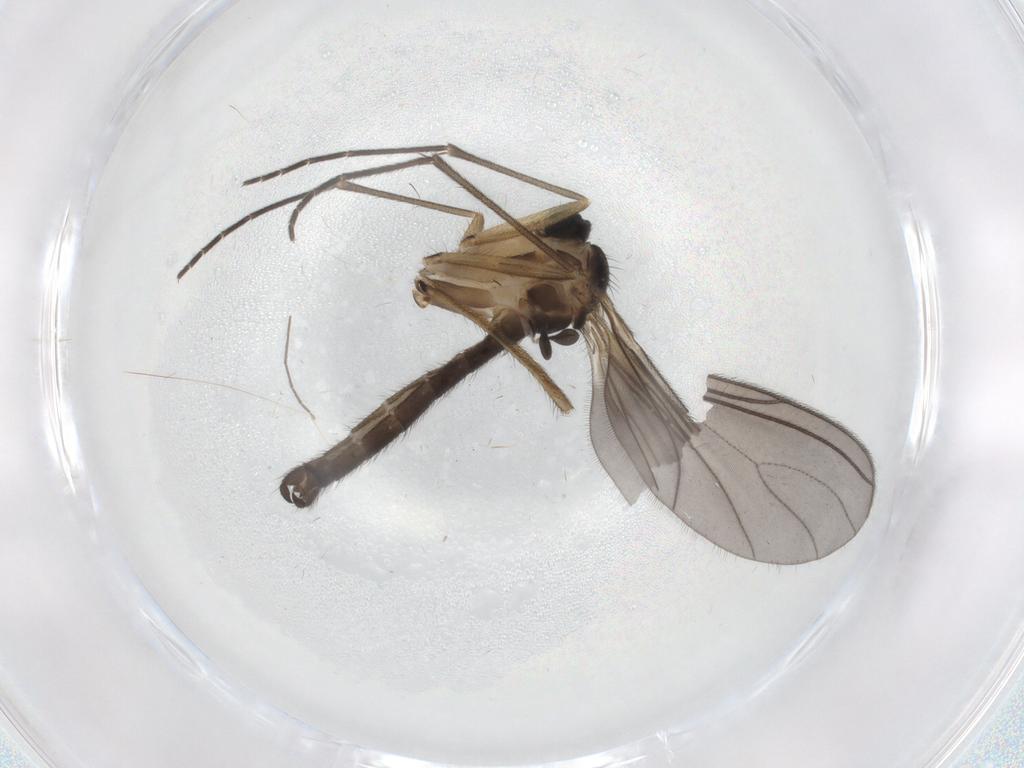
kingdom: Animalia
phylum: Arthropoda
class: Insecta
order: Diptera
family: Sciaridae
